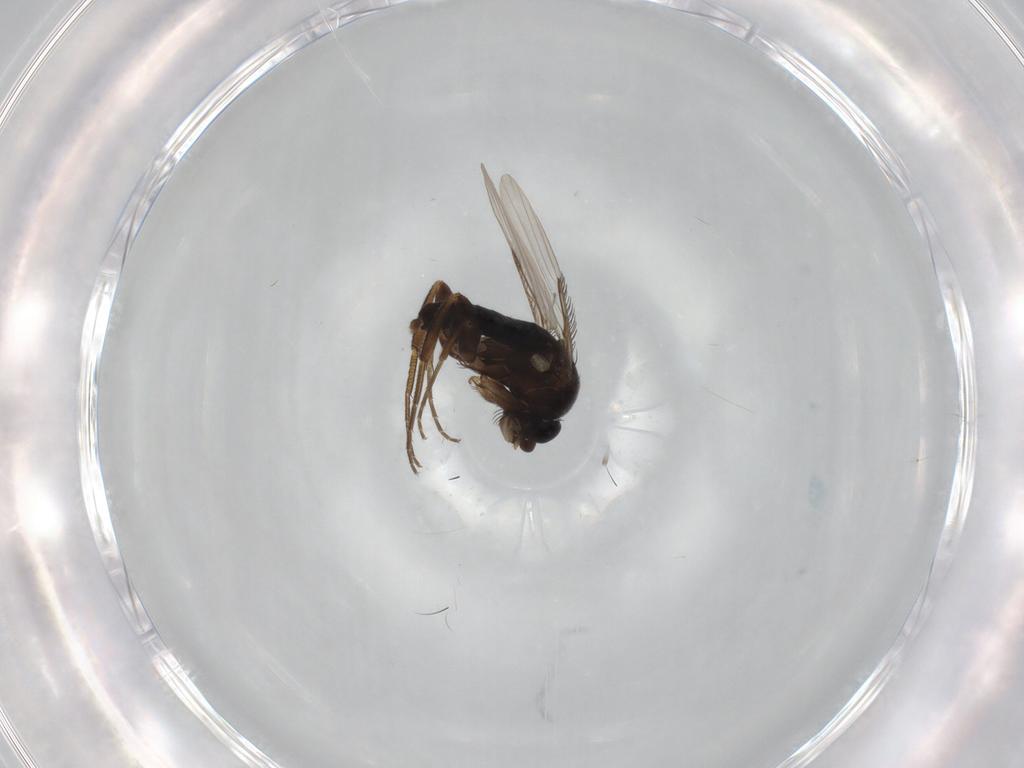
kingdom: Animalia
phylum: Arthropoda
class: Insecta
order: Diptera
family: Phoridae
